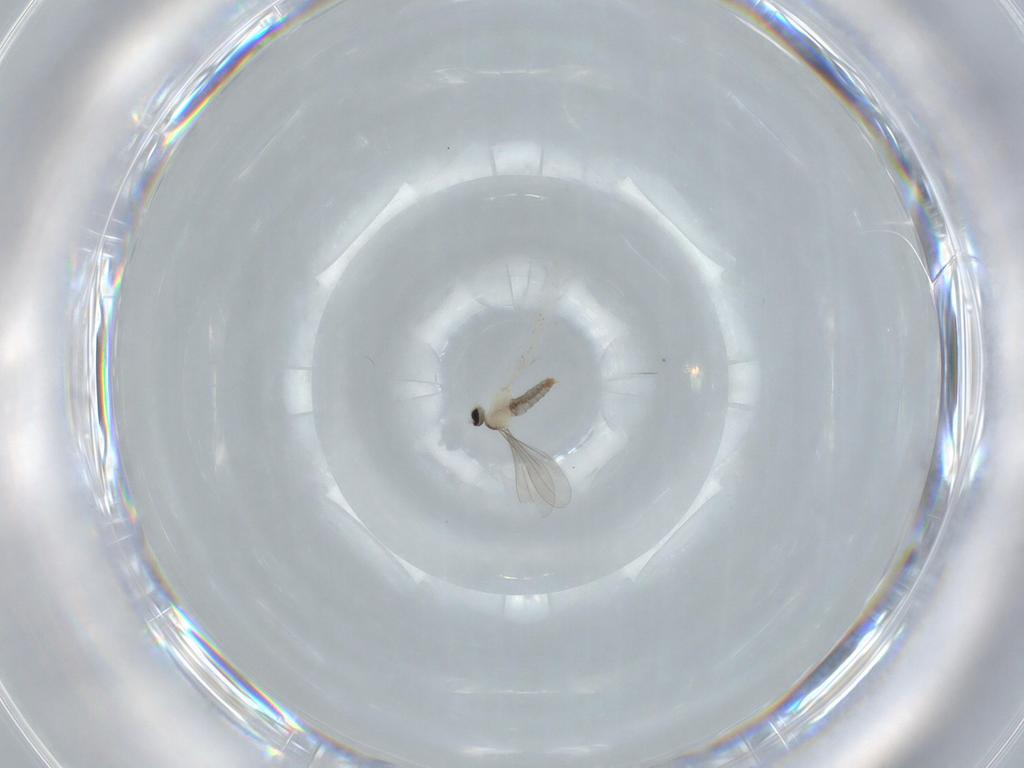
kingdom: Animalia
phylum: Arthropoda
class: Insecta
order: Diptera
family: Sciaridae
